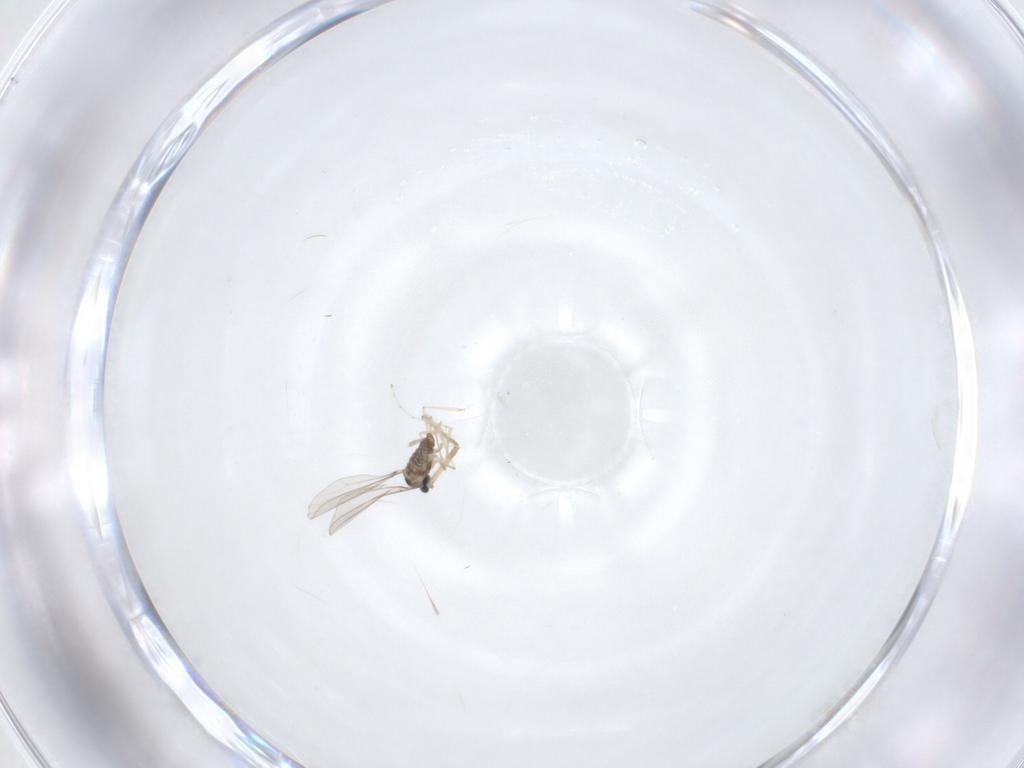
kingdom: Animalia
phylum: Arthropoda
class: Insecta
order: Diptera
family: Cecidomyiidae
